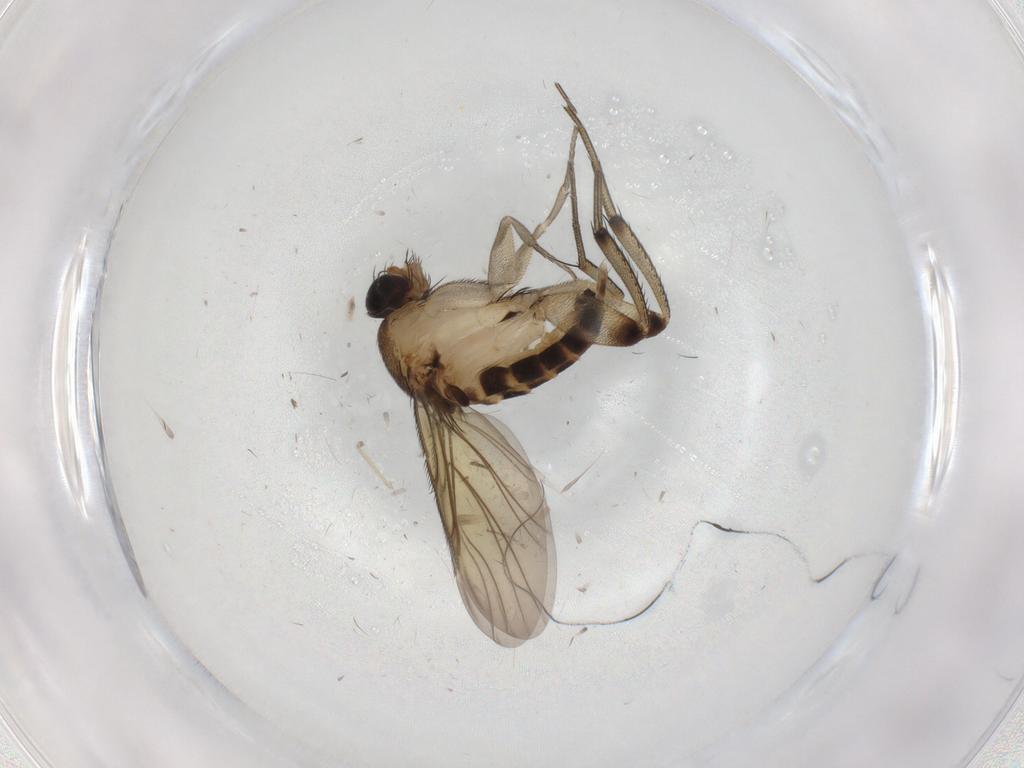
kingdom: Animalia
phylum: Arthropoda
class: Insecta
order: Diptera
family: Phoridae
